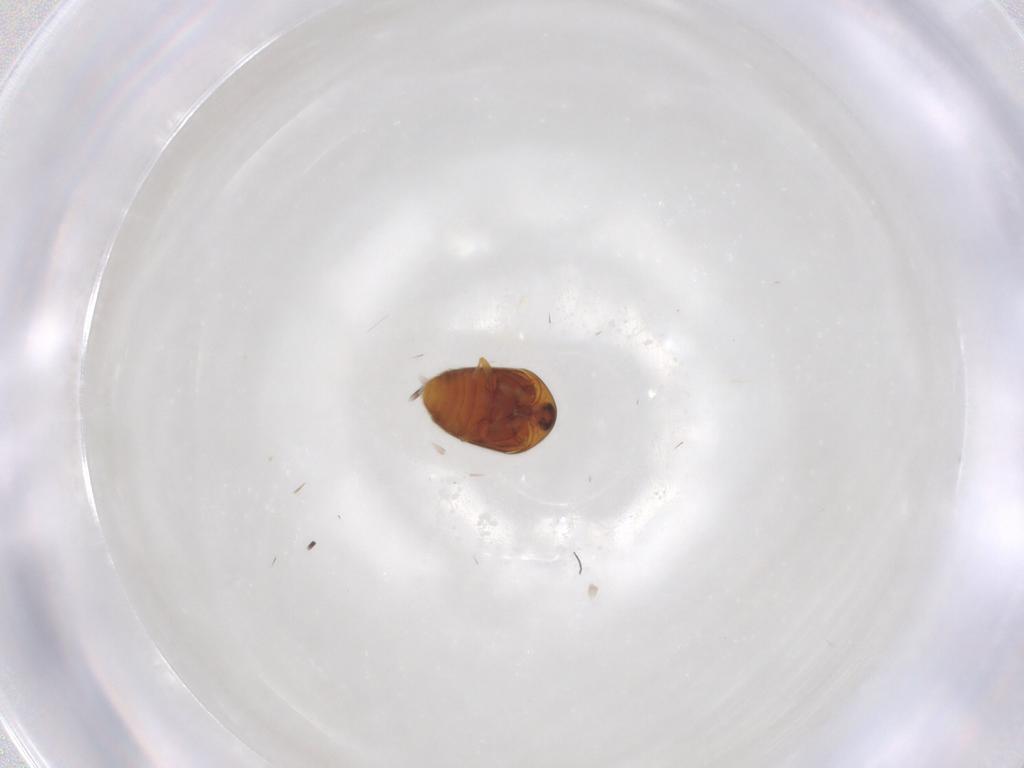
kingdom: Animalia
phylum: Arthropoda
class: Insecta
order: Coleoptera
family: Corylophidae
